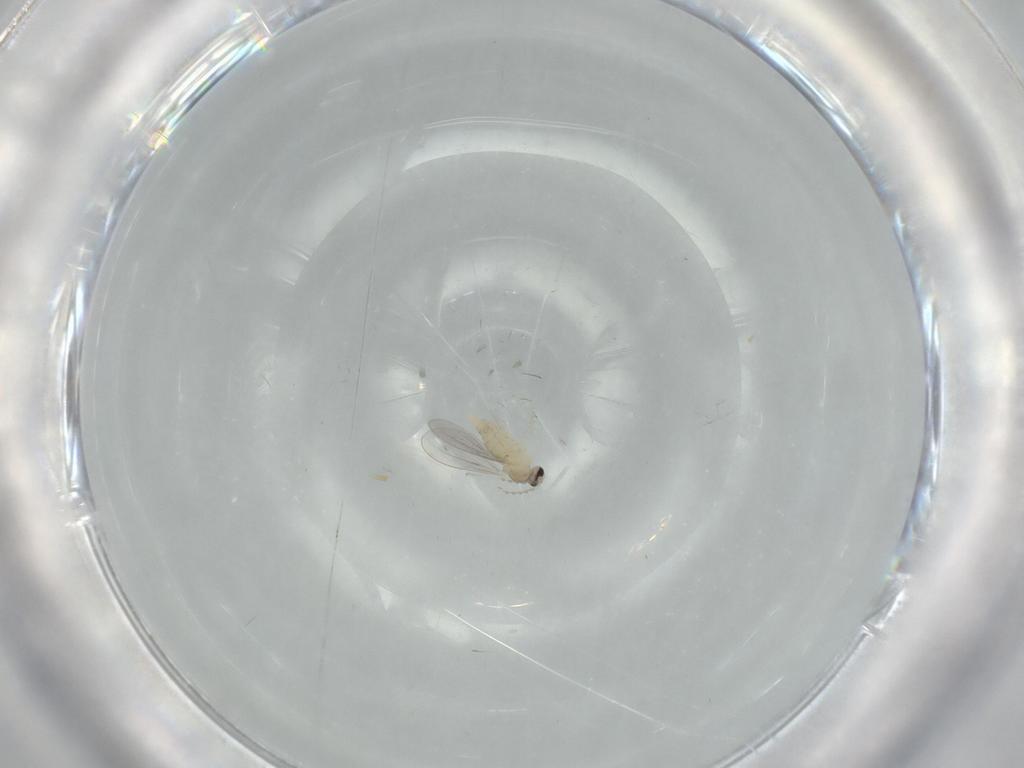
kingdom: Animalia
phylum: Arthropoda
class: Insecta
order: Diptera
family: Cecidomyiidae
